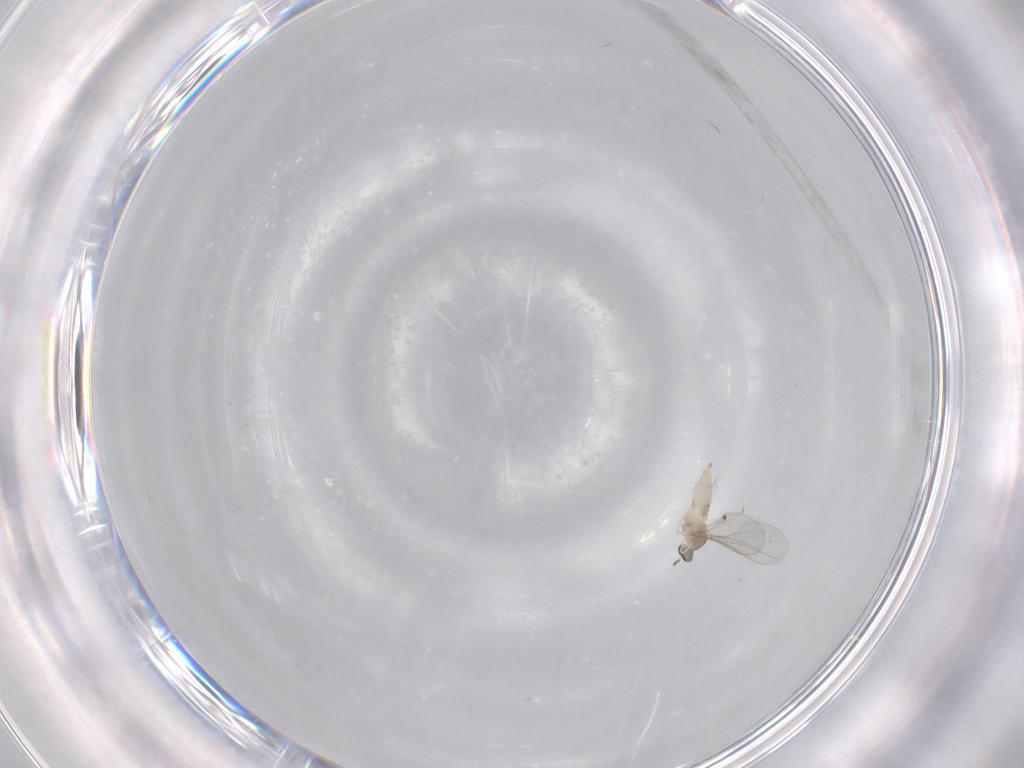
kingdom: Animalia
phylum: Arthropoda
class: Insecta
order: Diptera
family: Cecidomyiidae
